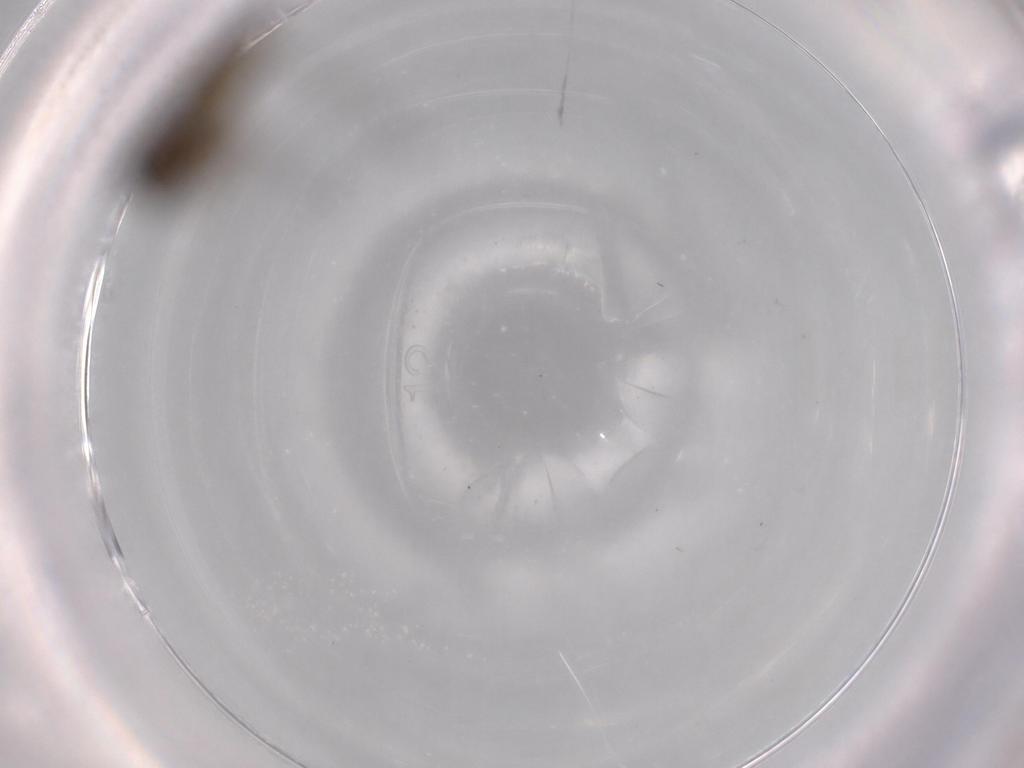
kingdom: Animalia
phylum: Arthropoda
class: Insecta
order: Diptera
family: Sciaridae
